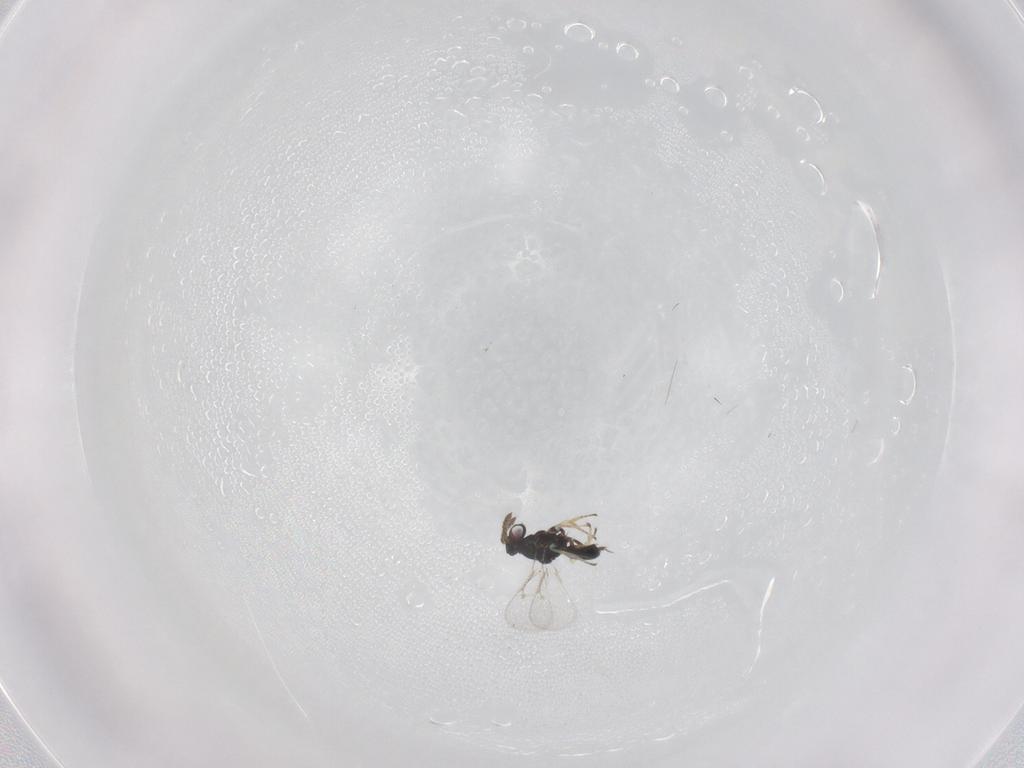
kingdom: Animalia
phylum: Arthropoda
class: Insecta
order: Hymenoptera
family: Eulophidae
